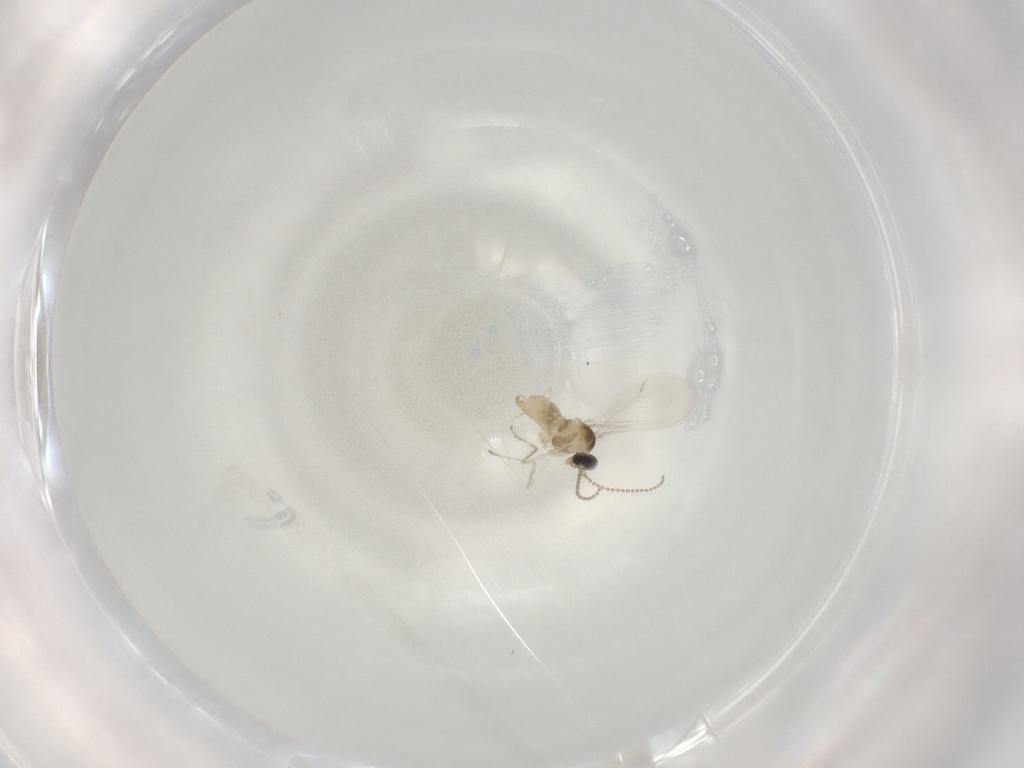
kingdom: Animalia
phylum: Arthropoda
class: Insecta
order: Diptera
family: Cecidomyiidae
